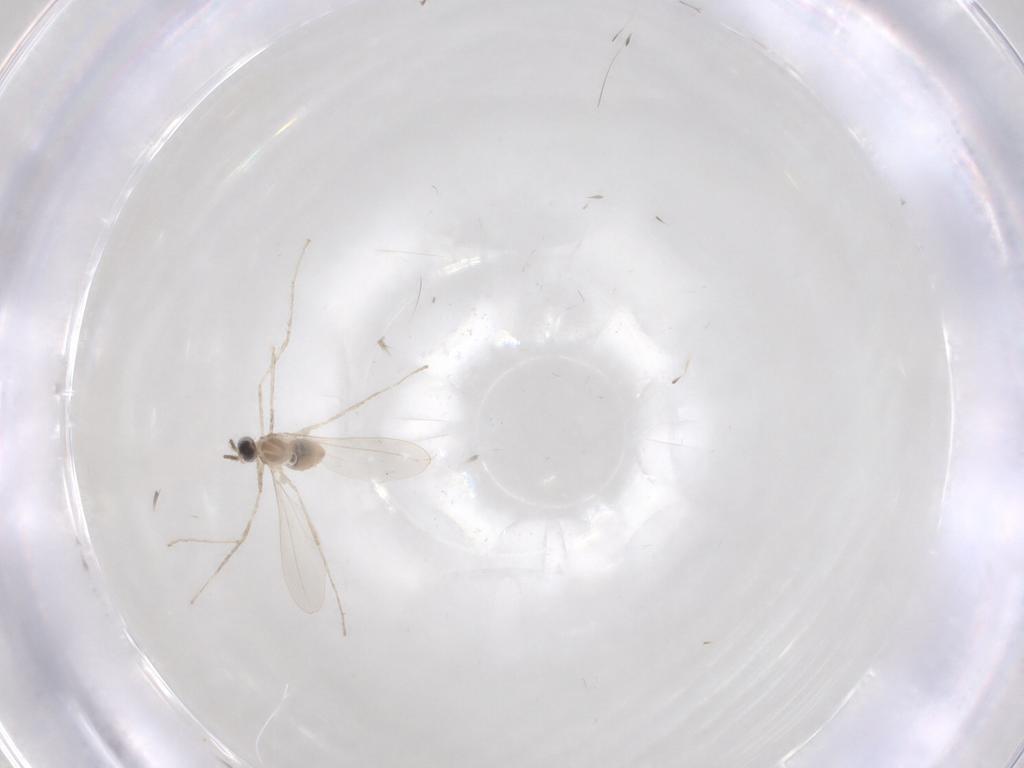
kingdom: Animalia
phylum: Arthropoda
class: Insecta
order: Diptera
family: Cecidomyiidae
